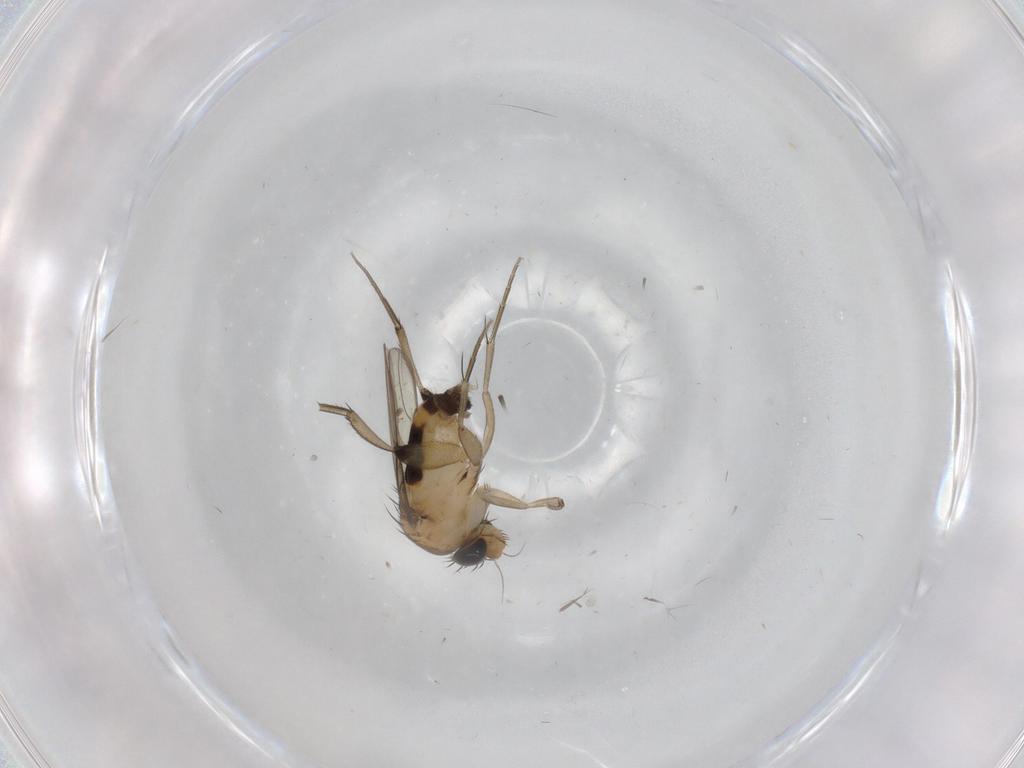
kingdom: Animalia
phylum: Arthropoda
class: Insecta
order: Diptera
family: Phoridae
